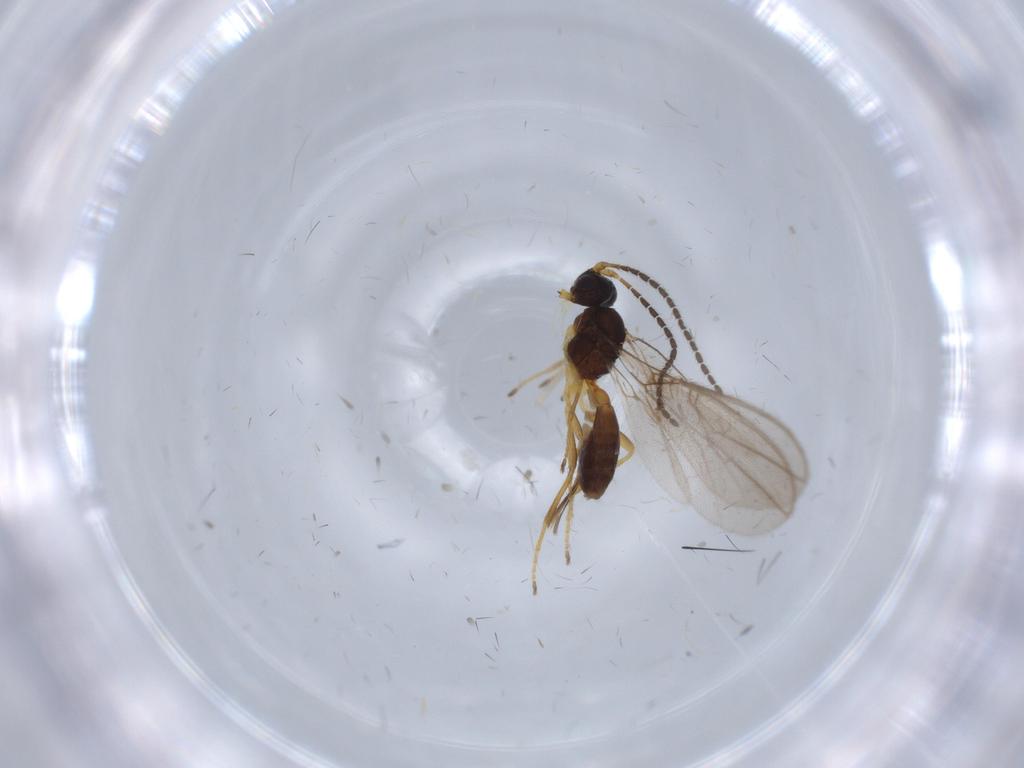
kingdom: Animalia
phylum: Arthropoda
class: Insecta
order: Hymenoptera
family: Braconidae
